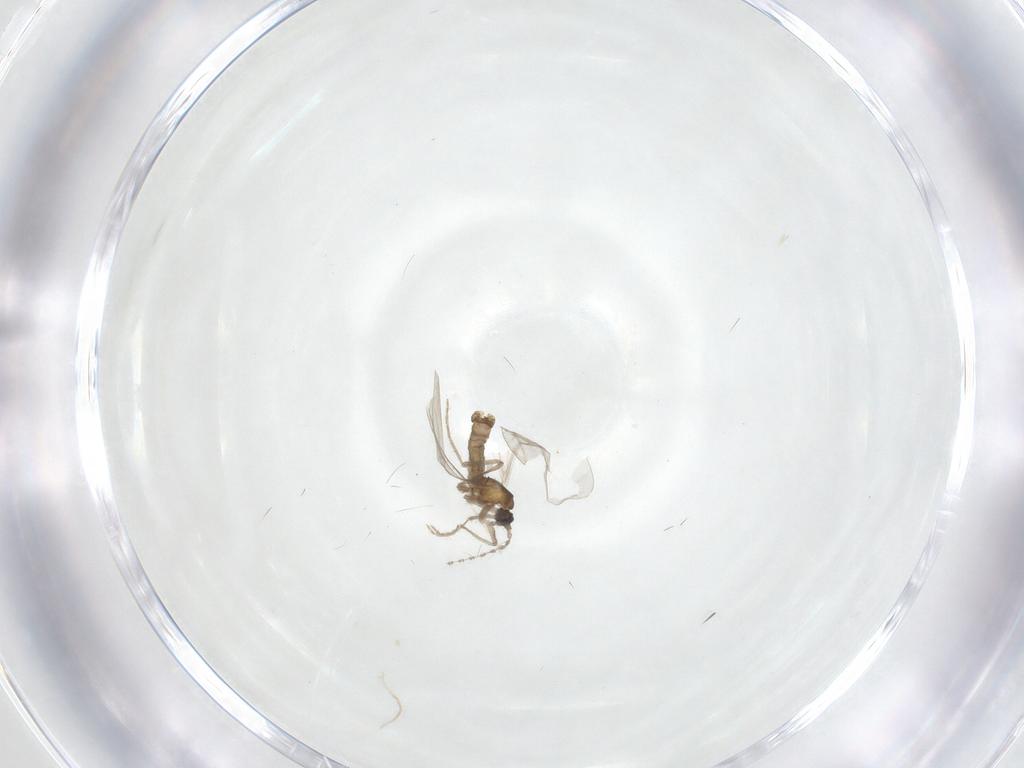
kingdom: Animalia
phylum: Arthropoda
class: Insecta
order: Diptera
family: Cecidomyiidae
